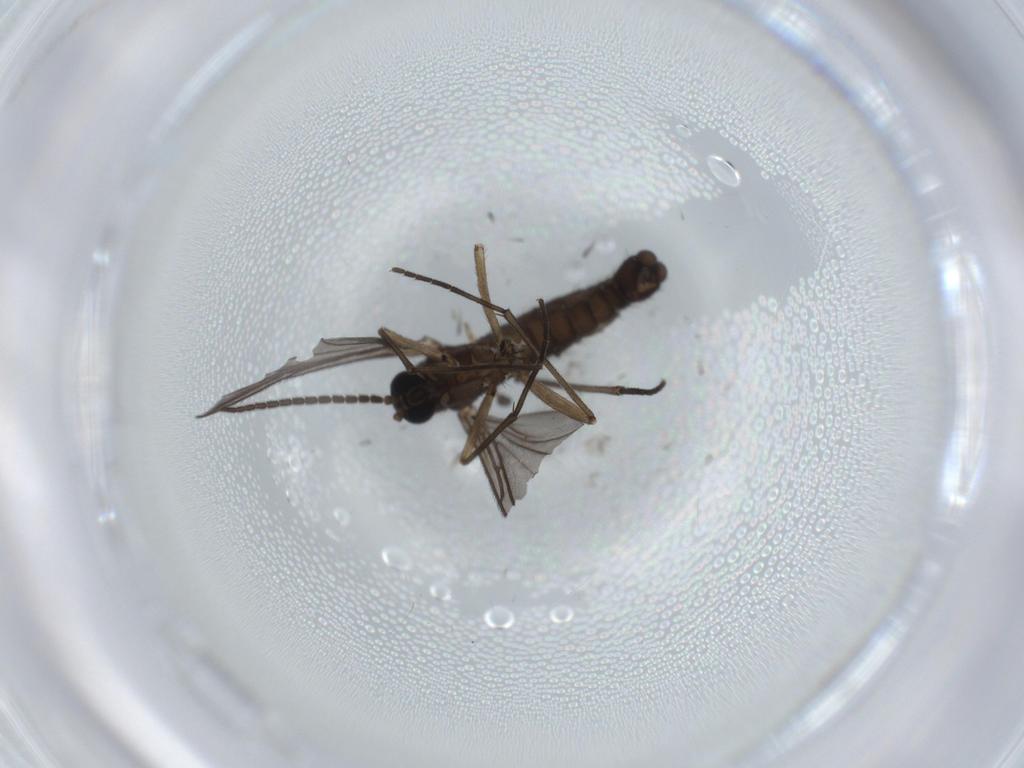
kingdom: Animalia
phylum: Arthropoda
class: Insecta
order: Diptera
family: Sciaridae
